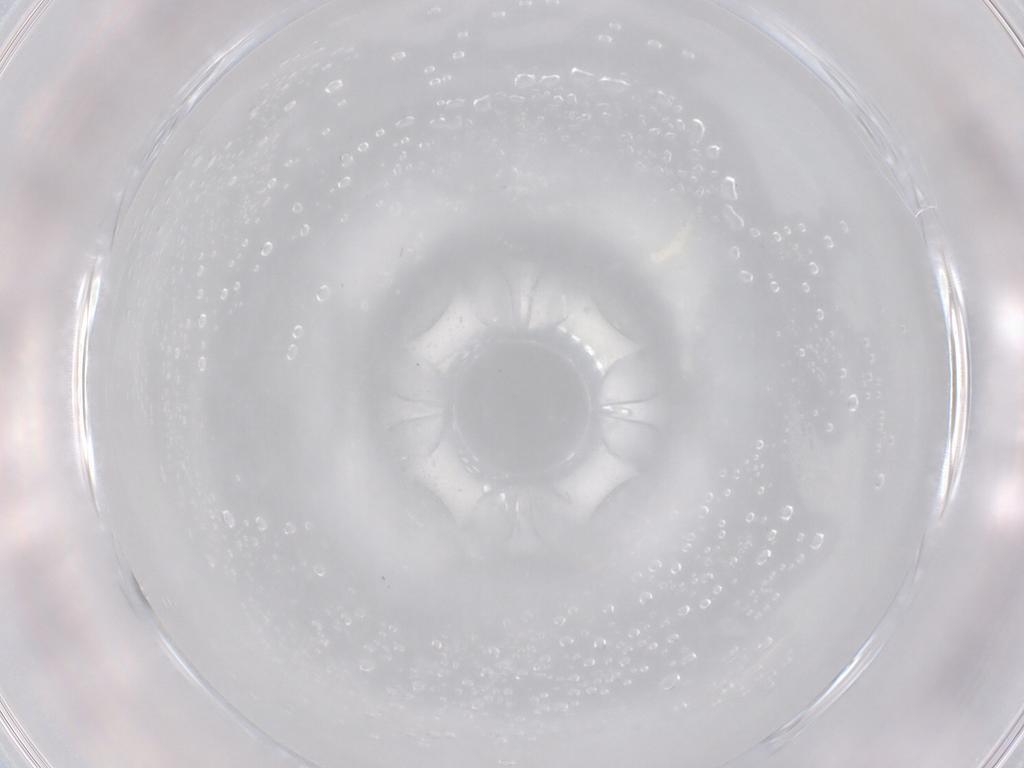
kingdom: Animalia
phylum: Arthropoda
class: Collembola
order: Entomobryomorpha
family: Isotomidae
